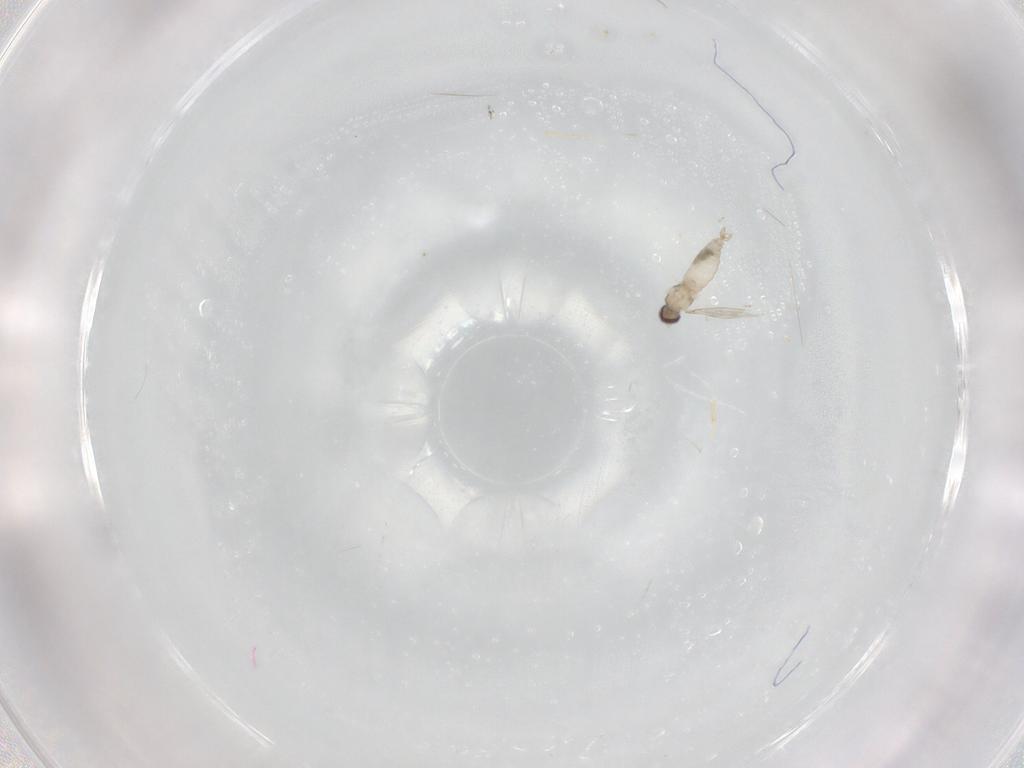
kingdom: Animalia
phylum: Arthropoda
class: Insecta
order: Diptera
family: Cecidomyiidae
